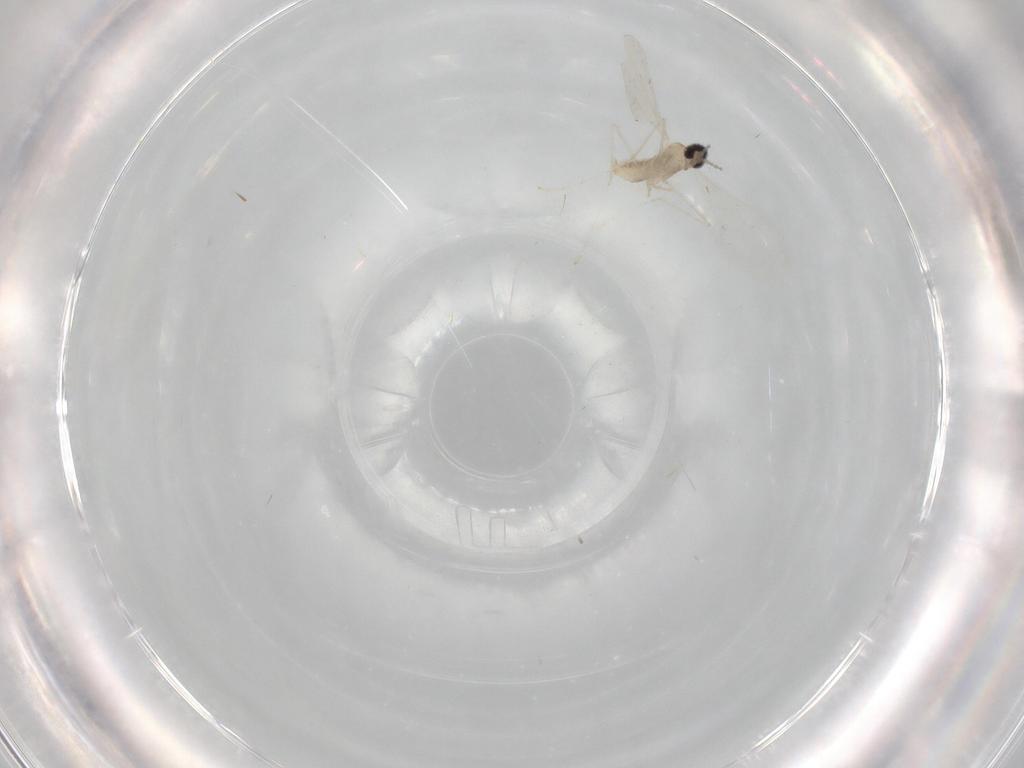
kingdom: Animalia
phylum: Arthropoda
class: Insecta
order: Diptera
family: Cecidomyiidae
